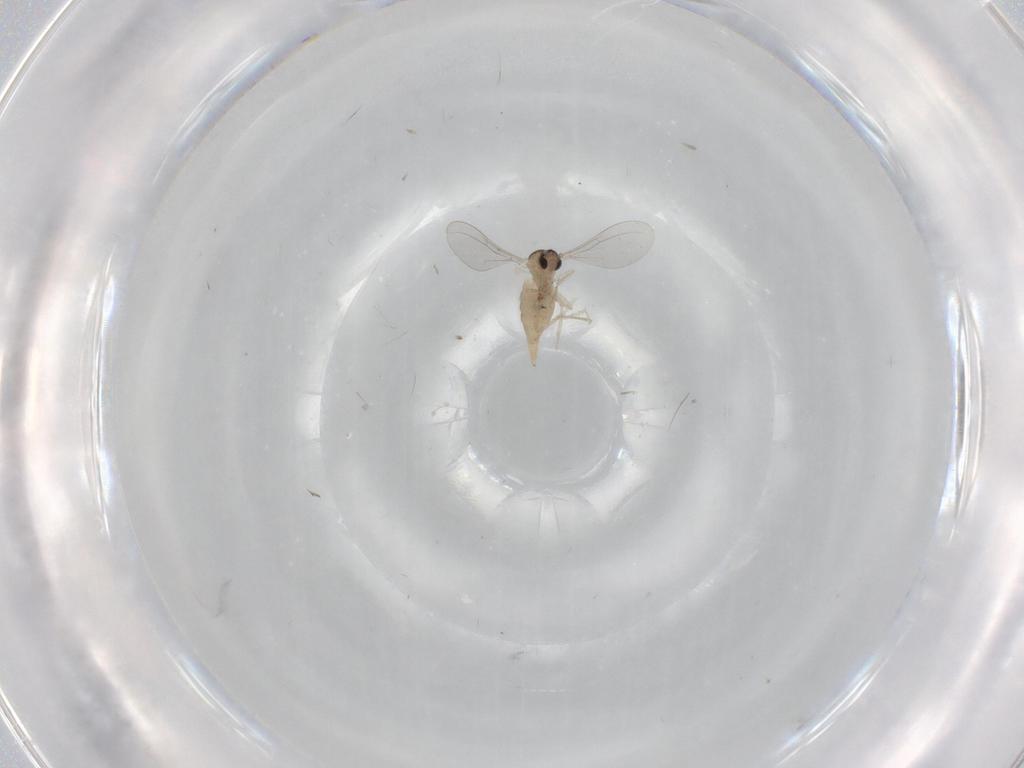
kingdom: Animalia
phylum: Arthropoda
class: Insecta
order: Diptera
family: Cecidomyiidae
